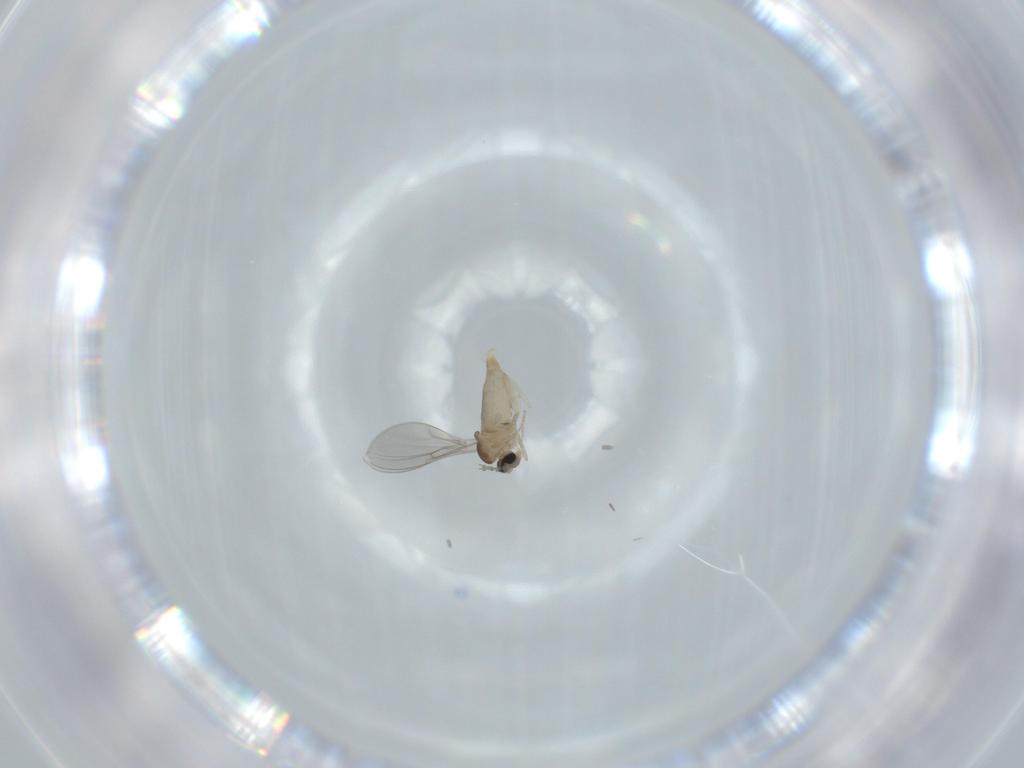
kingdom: Animalia
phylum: Arthropoda
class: Insecta
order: Diptera
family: Cecidomyiidae
